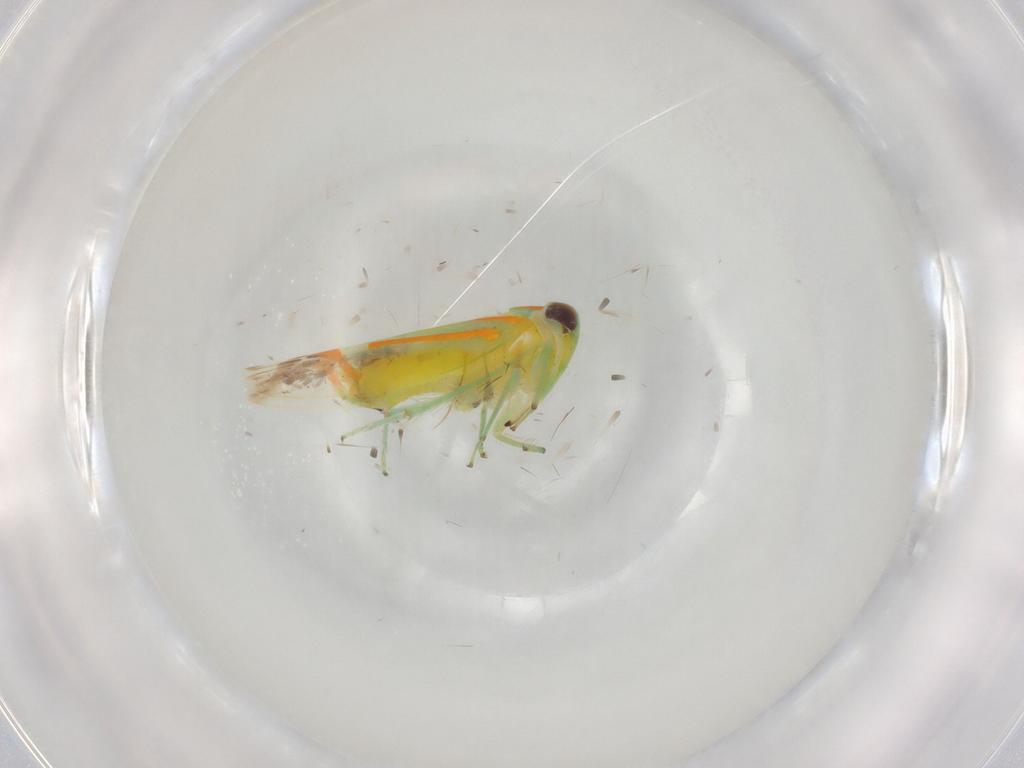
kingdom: Animalia
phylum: Arthropoda
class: Insecta
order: Hemiptera
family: Cicadellidae
